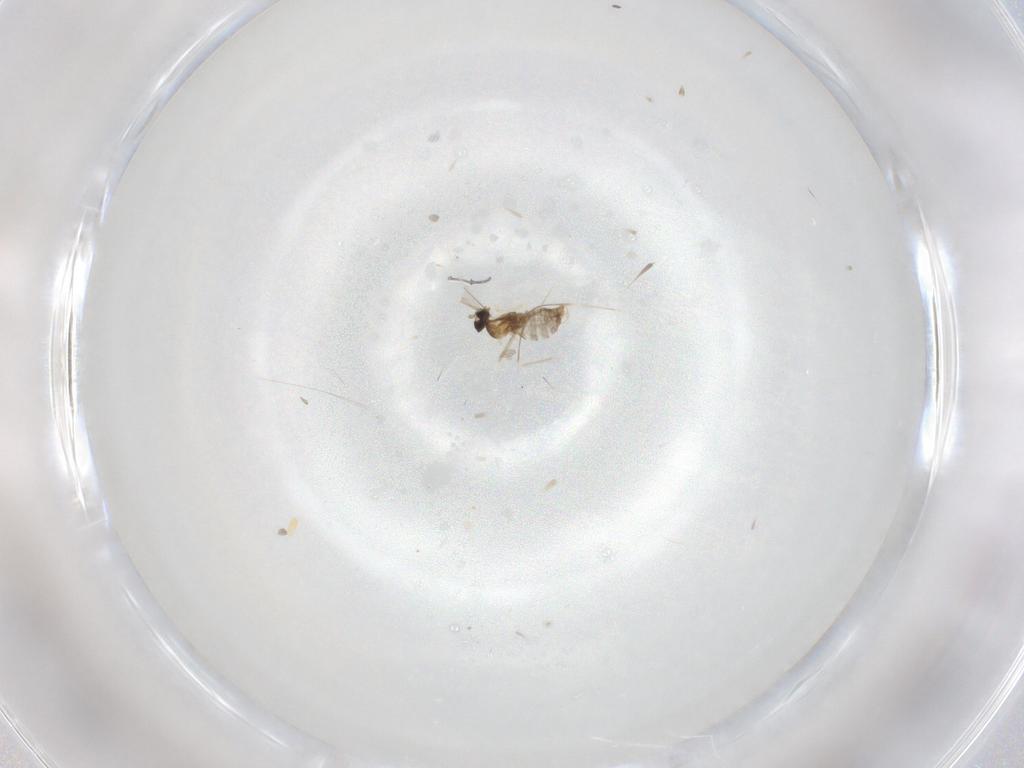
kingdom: Animalia
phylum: Arthropoda
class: Insecta
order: Diptera
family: Cecidomyiidae
